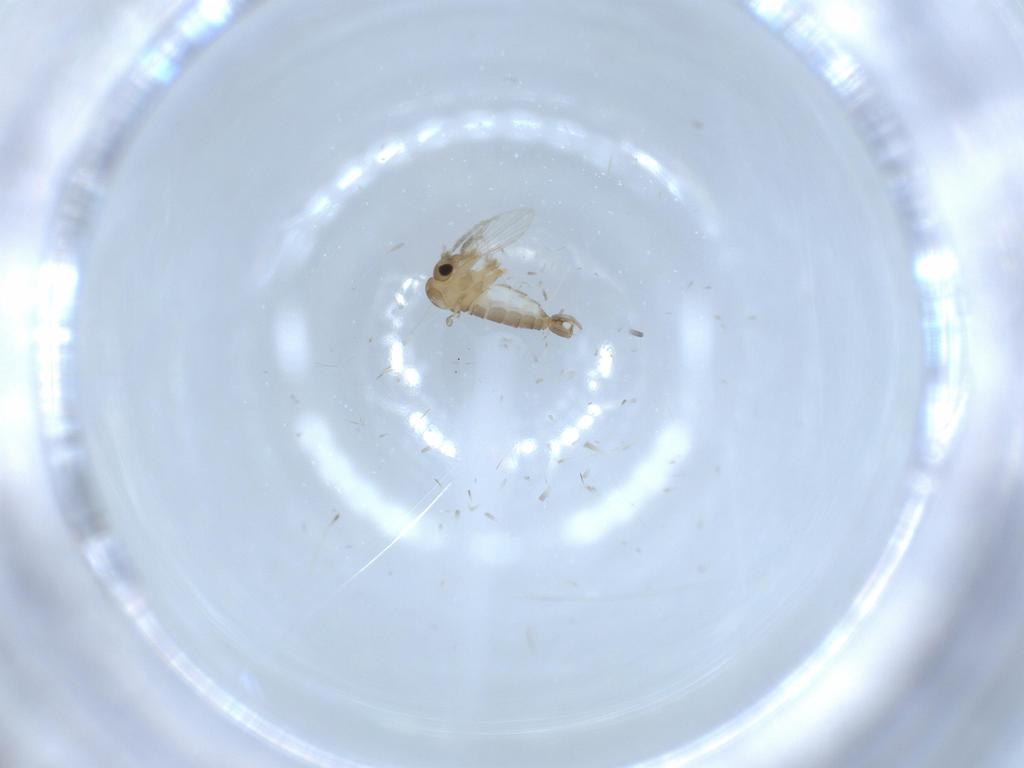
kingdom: Animalia
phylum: Arthropoda
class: Insecta
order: Diptera
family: Psychodidae
